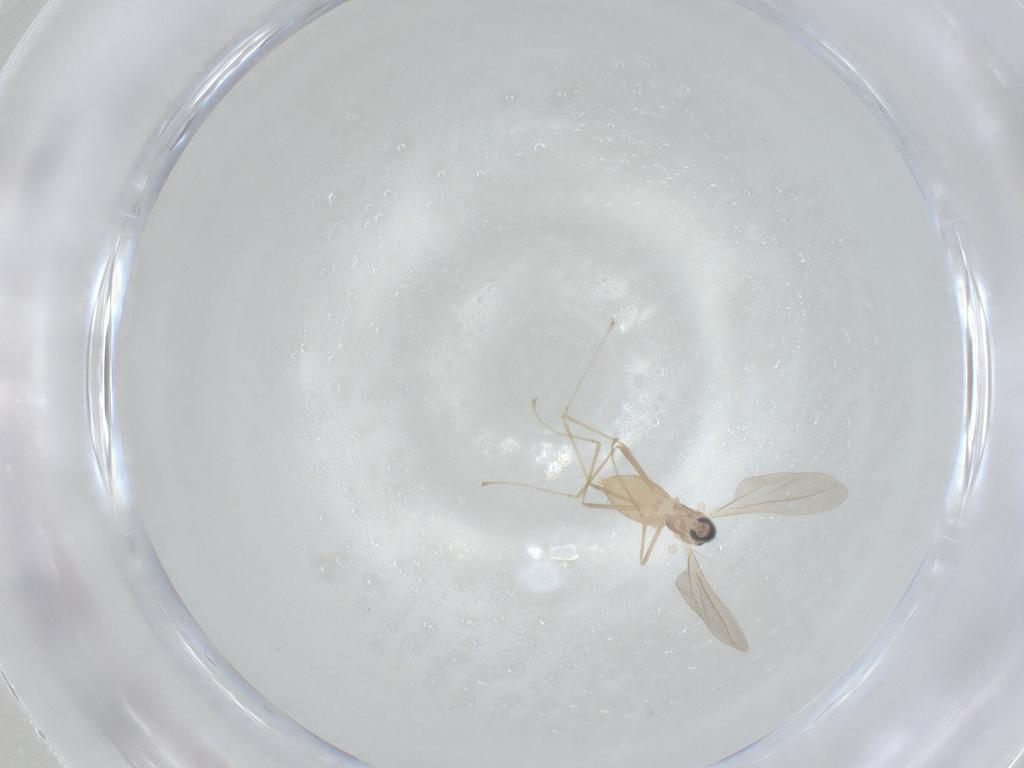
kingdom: Animalia
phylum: Arthropoda
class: Insecta
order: Diptera
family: Cecidomyiidae
